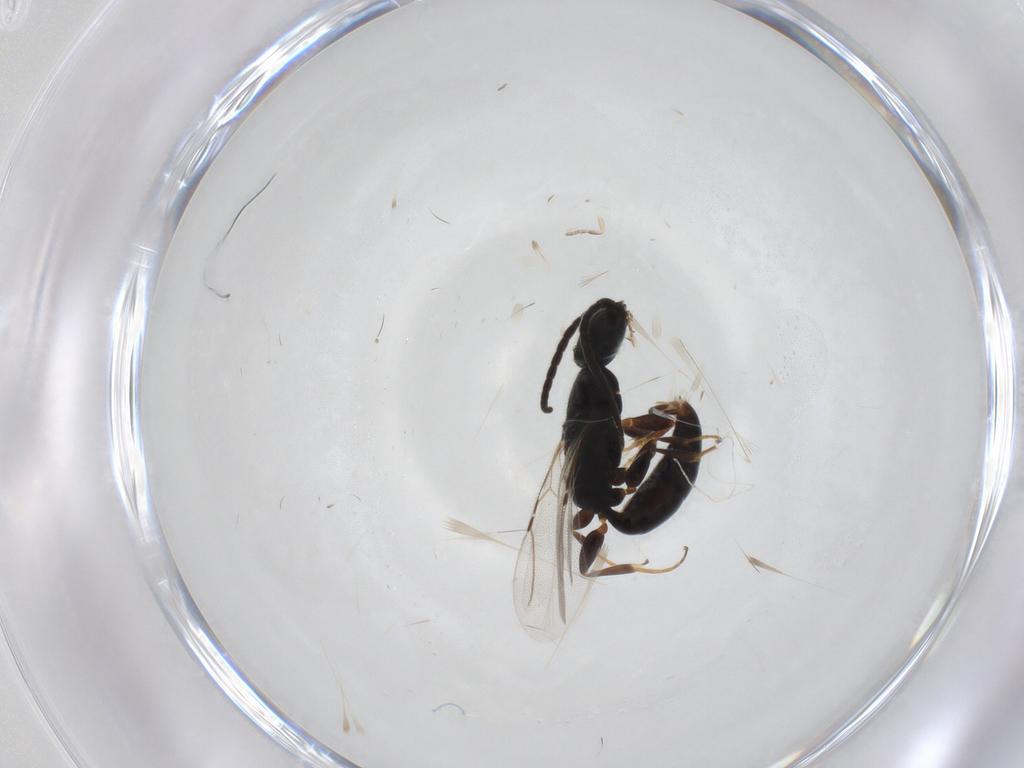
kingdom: Animalia
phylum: Arthropoda
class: Insecta
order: Hymenoptera
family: Bethylidae
